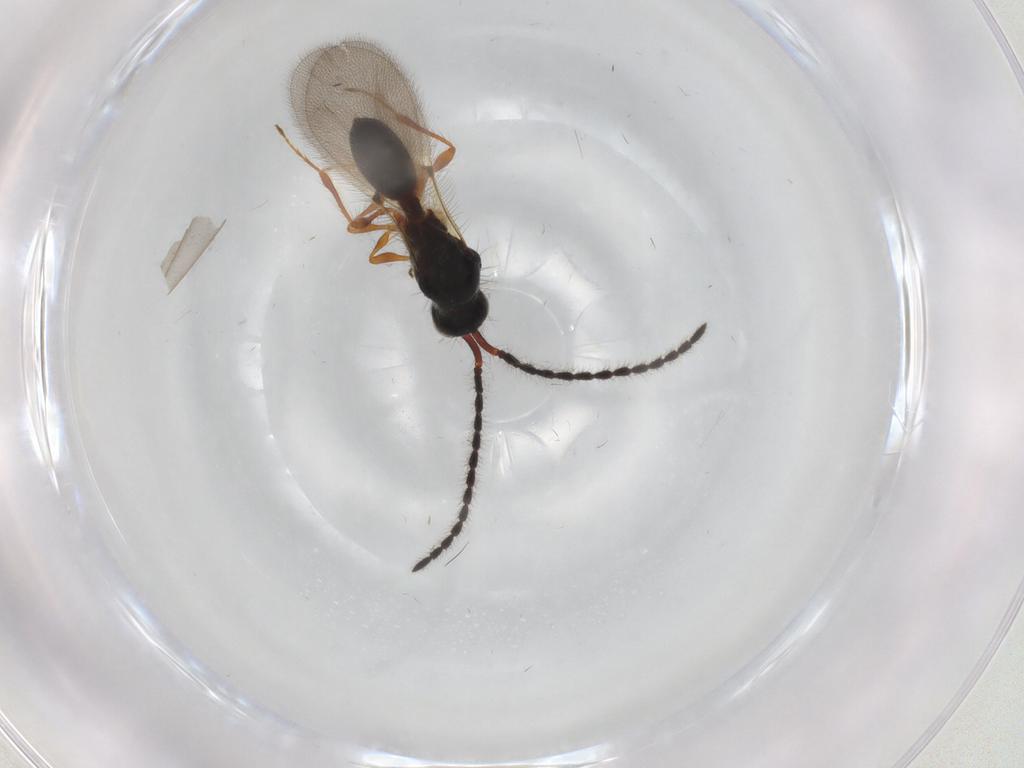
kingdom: Animalia
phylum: Arthropoda
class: Insecta
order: Hymenoptera
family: Diapriidae
